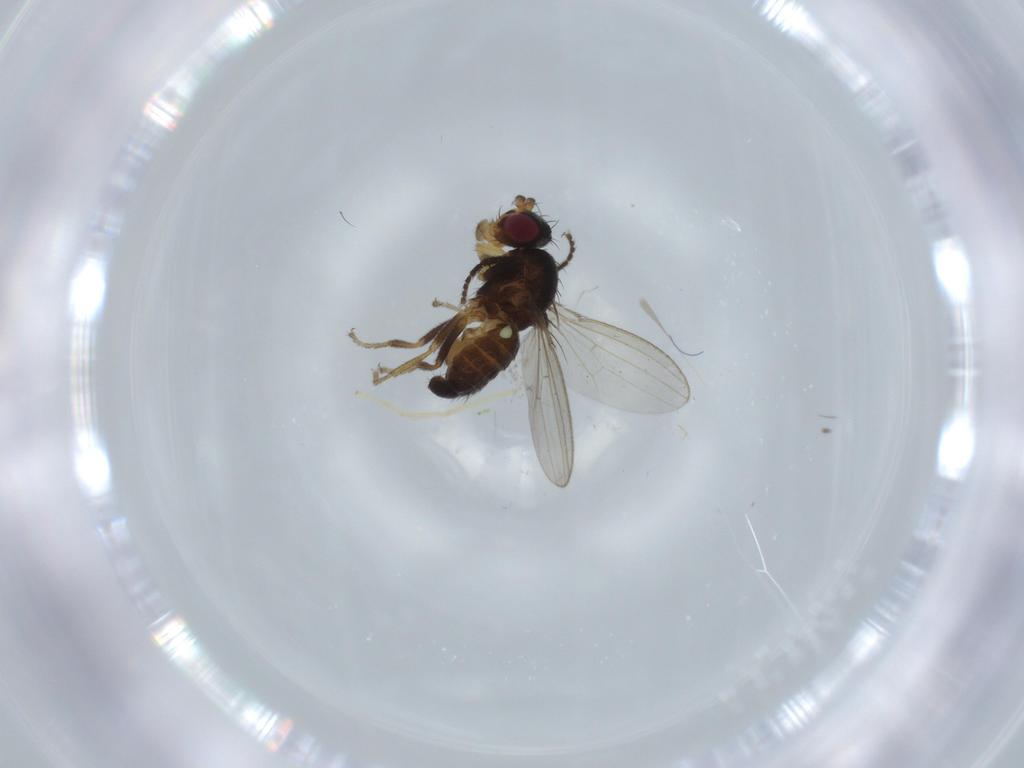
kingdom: Animalia
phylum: Arthropoda
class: Insecta
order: Diptera
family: Chironomidae
